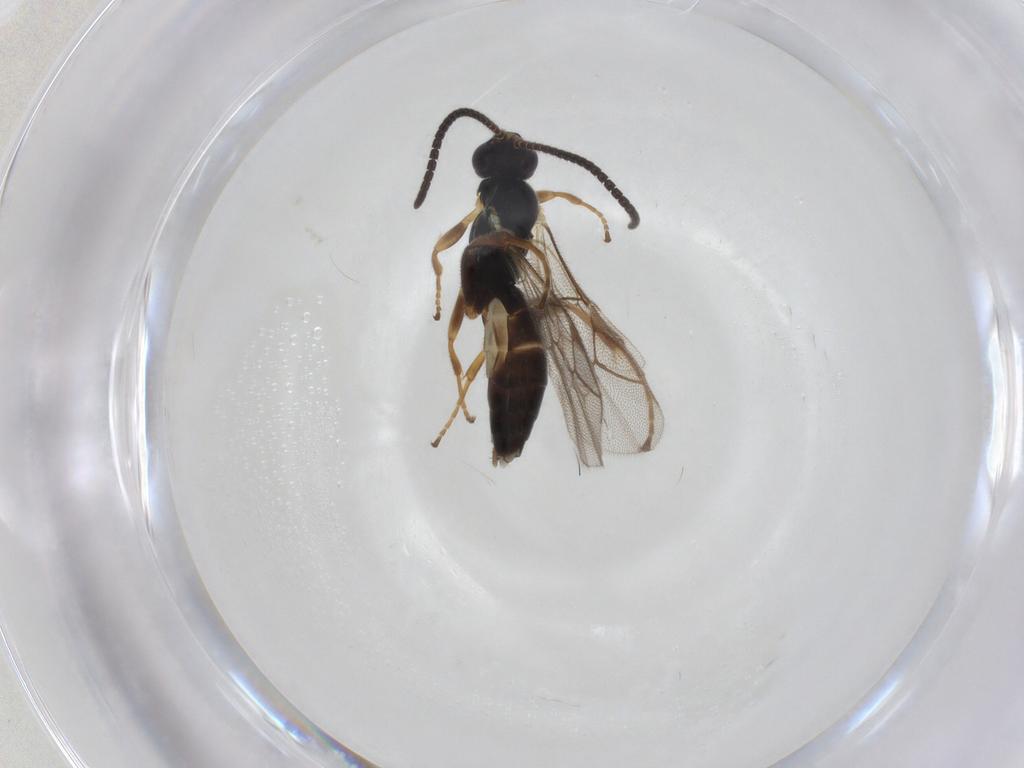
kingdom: Animalia
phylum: Arthropoda
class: Insecta
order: Hymenoptera
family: Ichneumonidae
